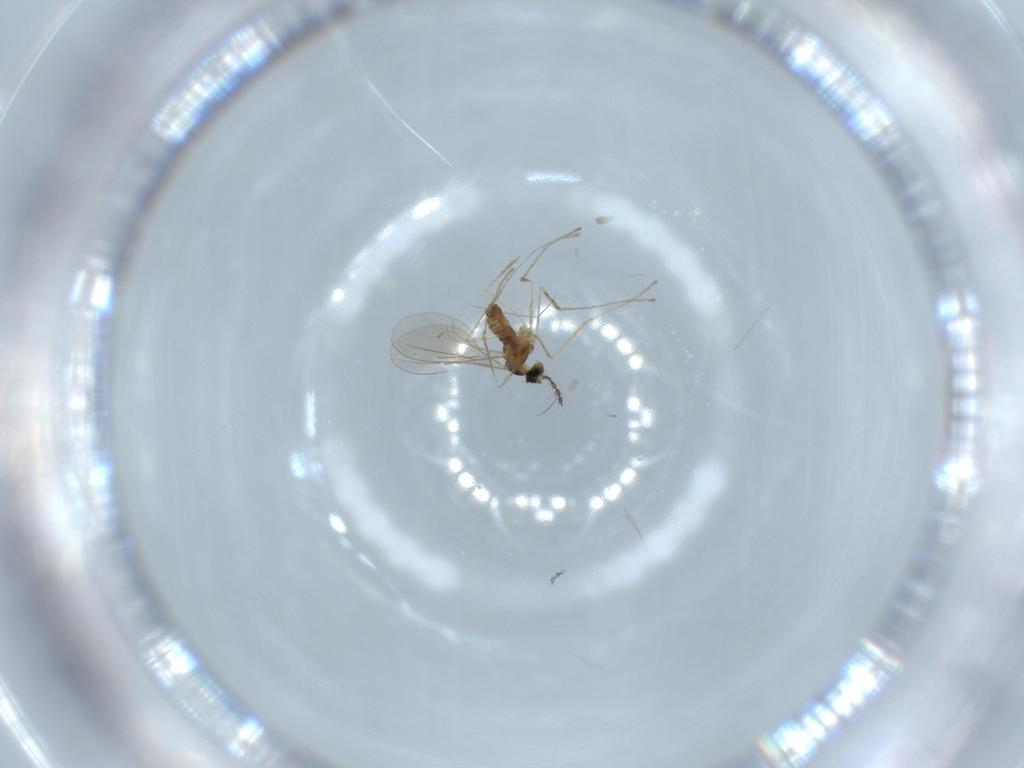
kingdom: Animalia
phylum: Arthropoda
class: Insecta
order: Diptera
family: Cecidomyiidae
